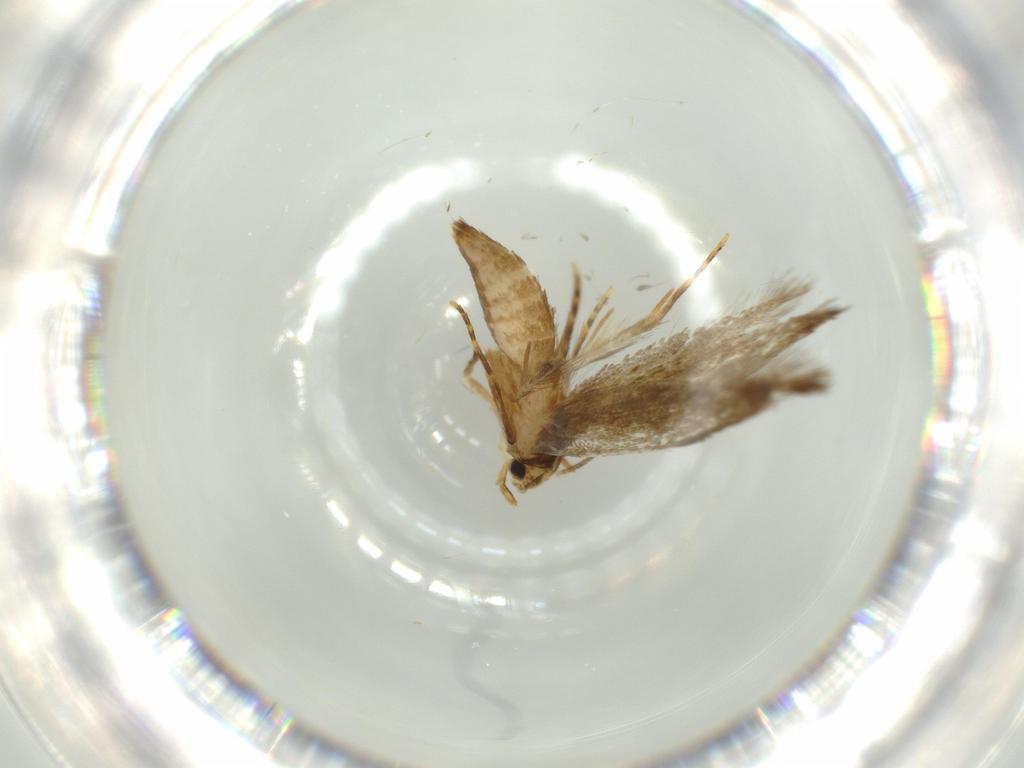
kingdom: Animalia
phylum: Arthropoda
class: Insecta
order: Lepidoptera
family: Tineidae
